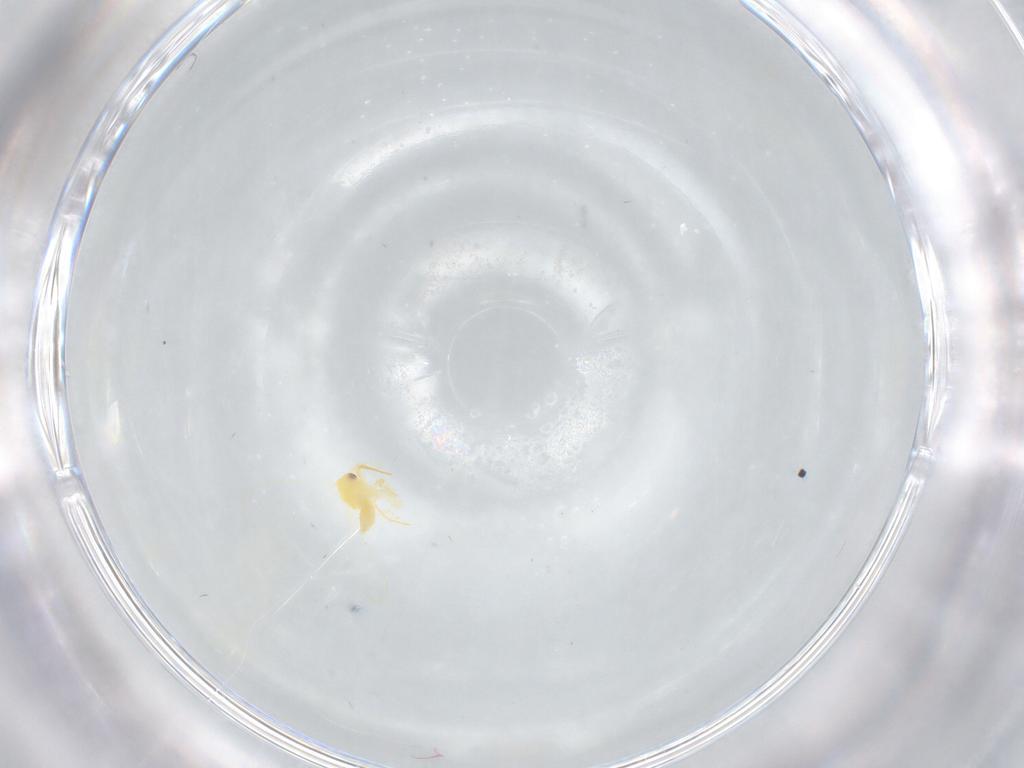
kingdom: Animalia
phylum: Arthropoda
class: Insecta
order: Hemiptera
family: Aleyrodidae
